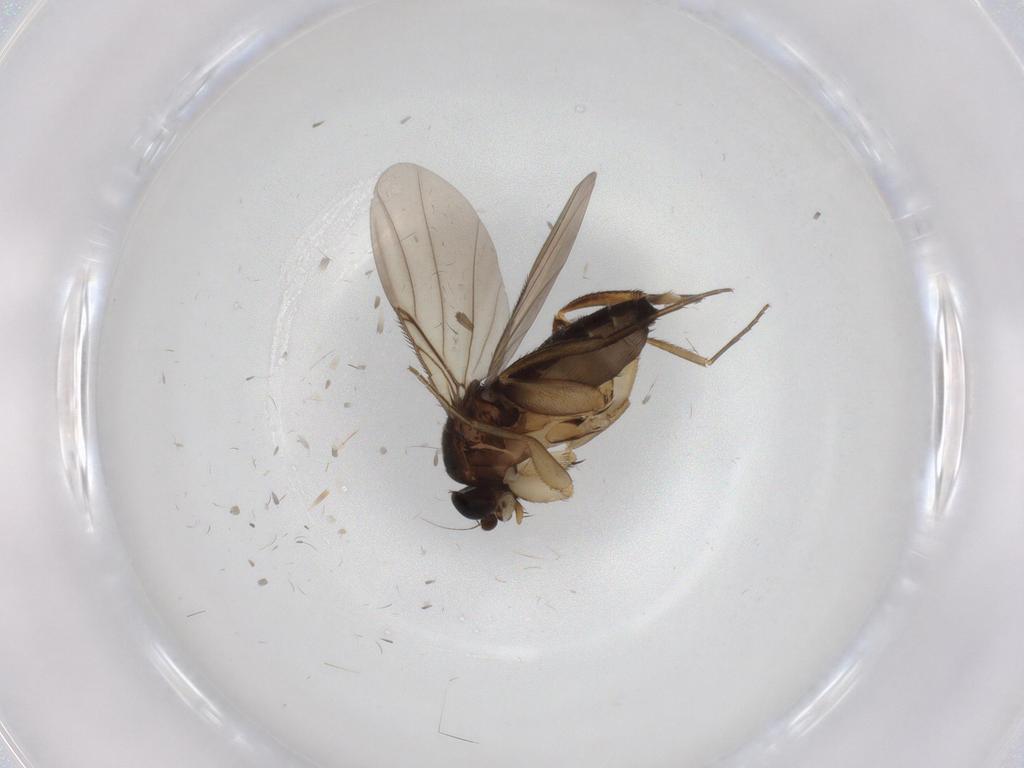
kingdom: Animalia
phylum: Arthropoda
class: Insecta
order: Diptera
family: Phoridae
